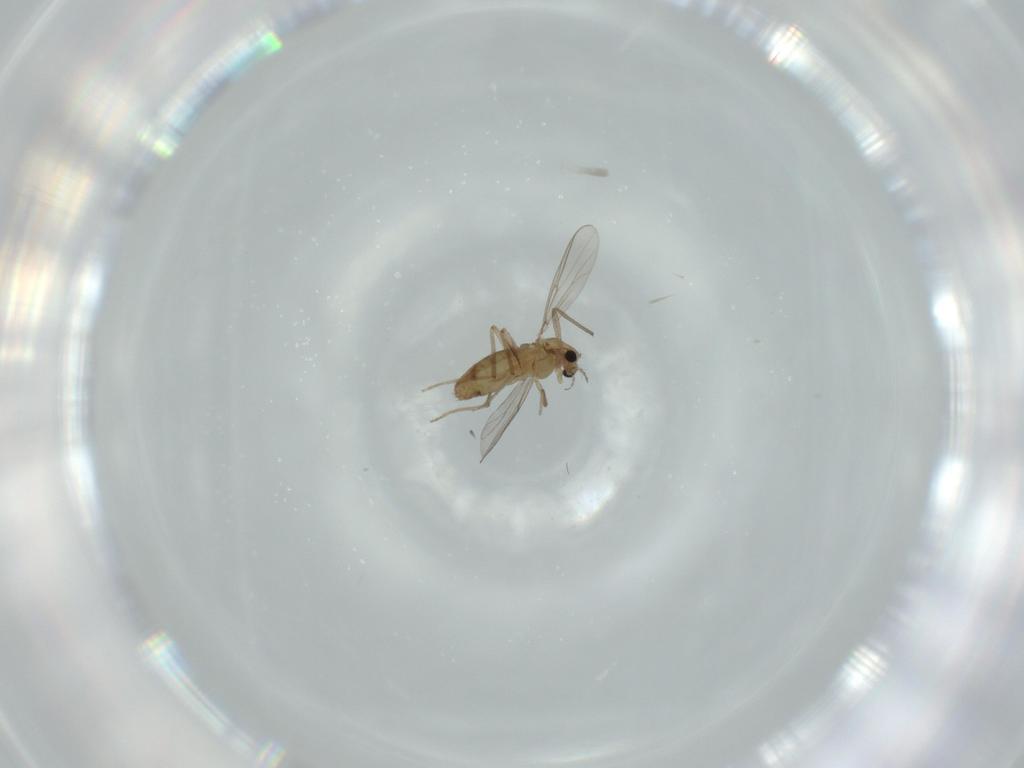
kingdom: Animalia
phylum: Arthropoda
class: Insecta
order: Diptera
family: Chironomidae
